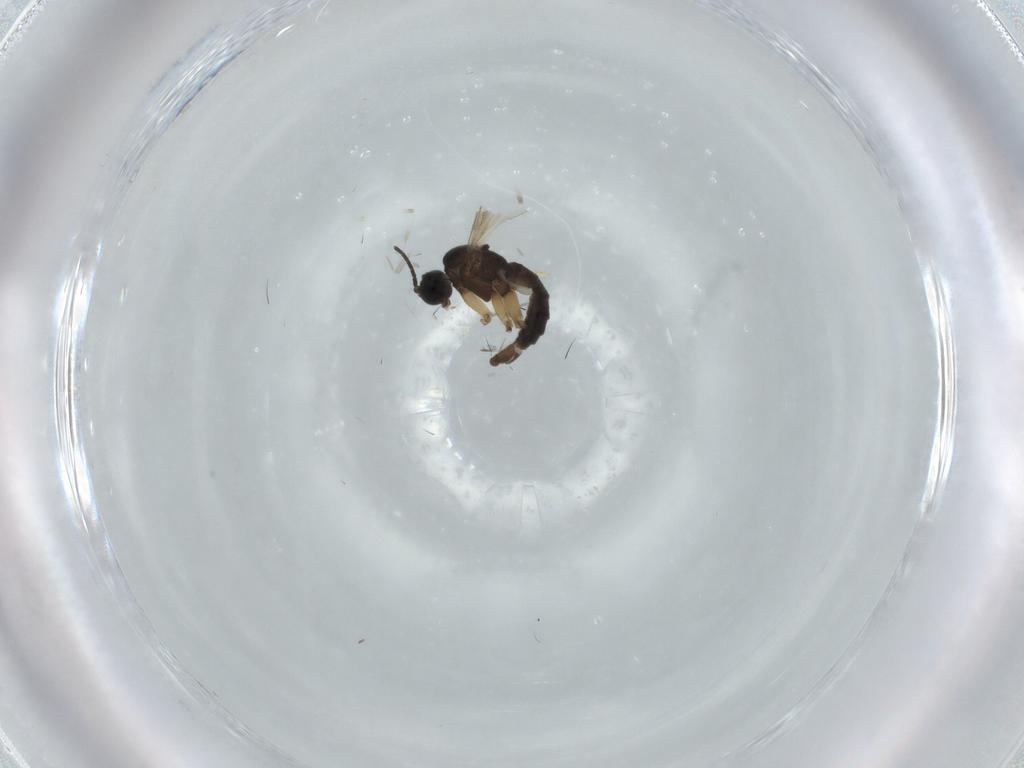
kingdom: Animalia
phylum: Arthropoda
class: Insecta
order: Diptera
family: Sciaridae
